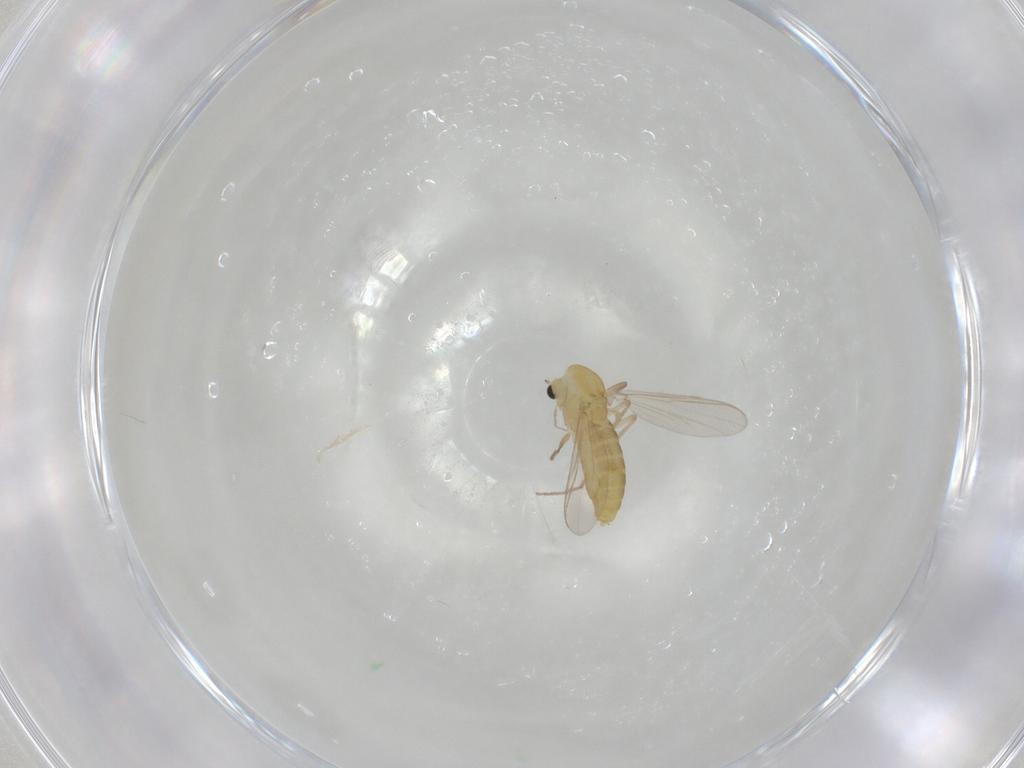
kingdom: Animalia
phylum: Arthropoda
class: Insecta
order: Diptera
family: Chironomidae
